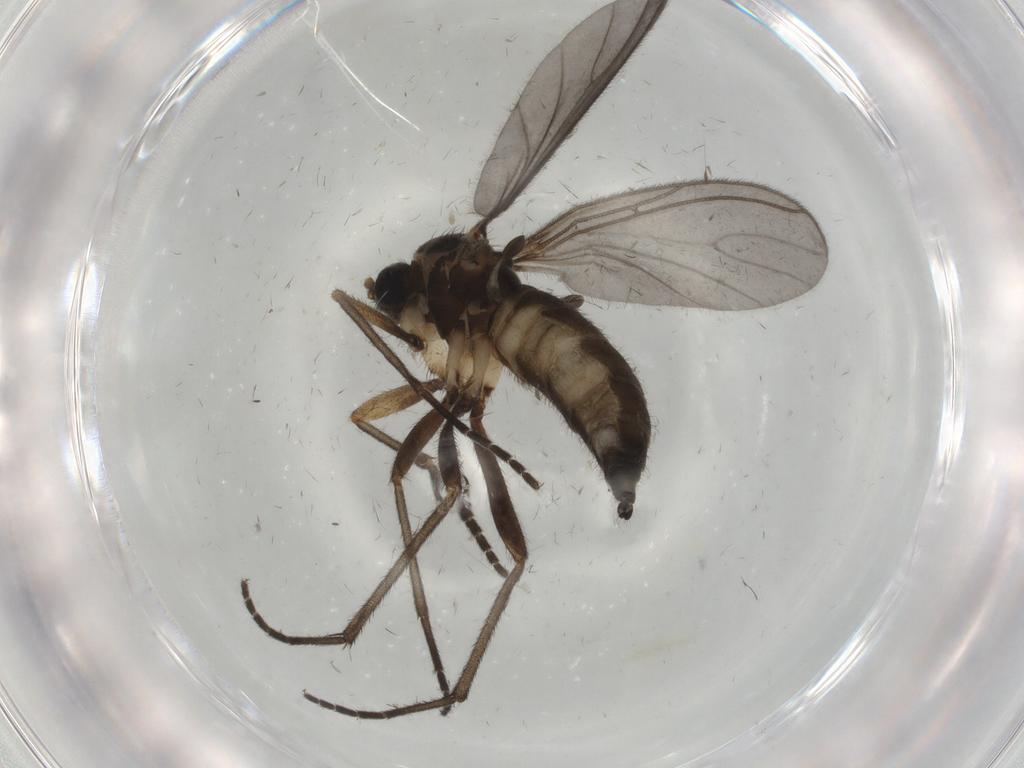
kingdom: Animalia
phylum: Arthropoda
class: Insecta
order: Diptera
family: Sciaridae
